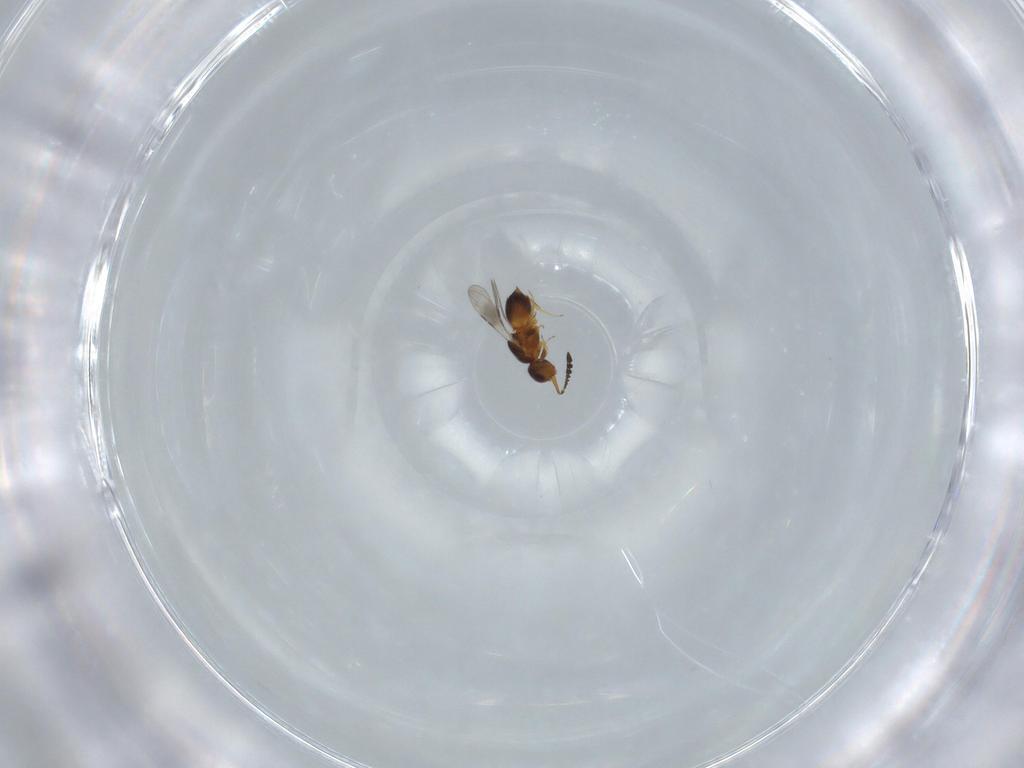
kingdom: Animalia
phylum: Arthropoda
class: Insecta
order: Hymenoptera
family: Ceraphronidae
